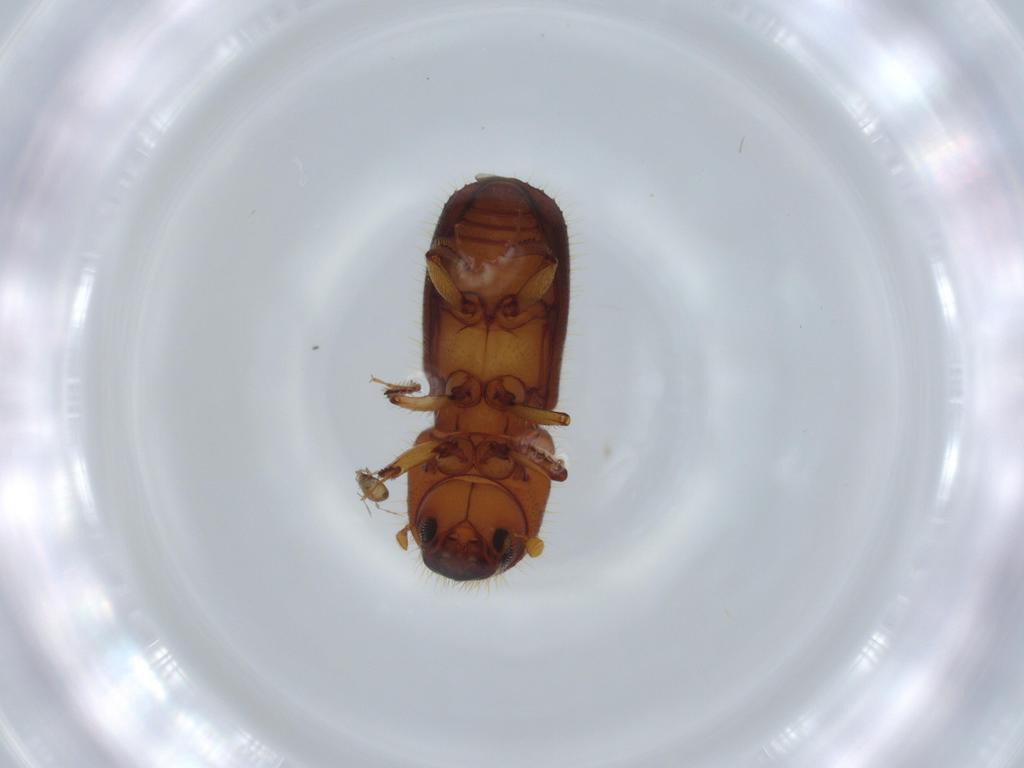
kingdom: Animalia
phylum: Arthropoda
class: Insecta
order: Coleoptera
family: Curculionidae
